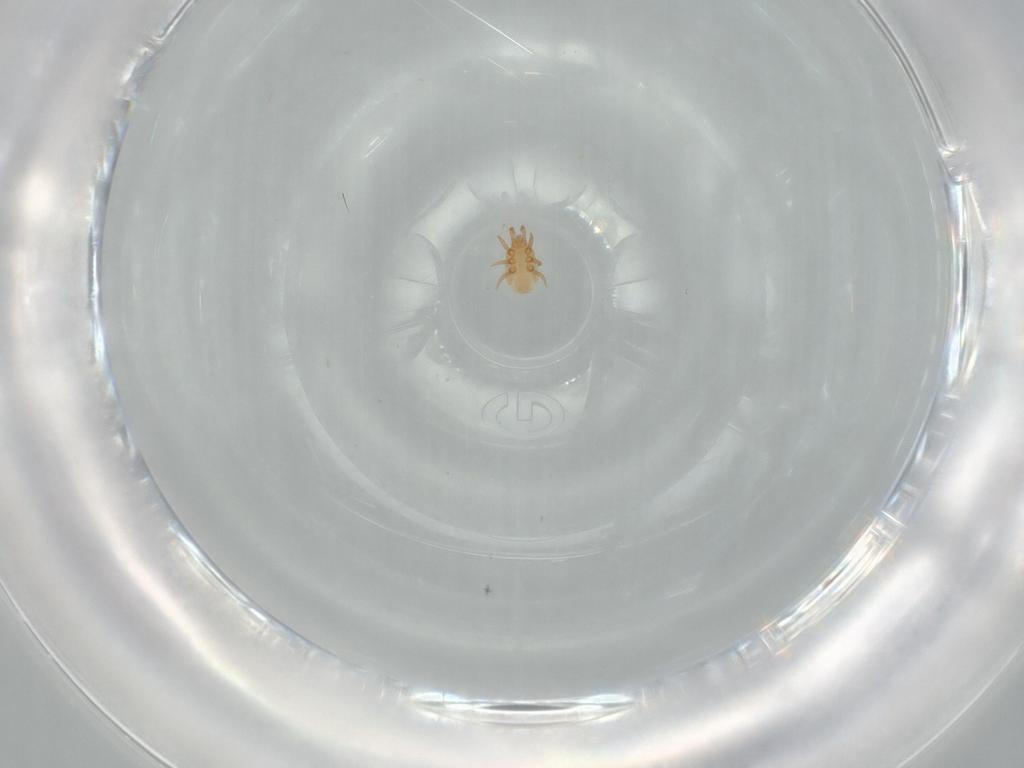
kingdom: Animalia
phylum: Arthropoda
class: Arachnida
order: Mesostigmata
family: Dinychidae
